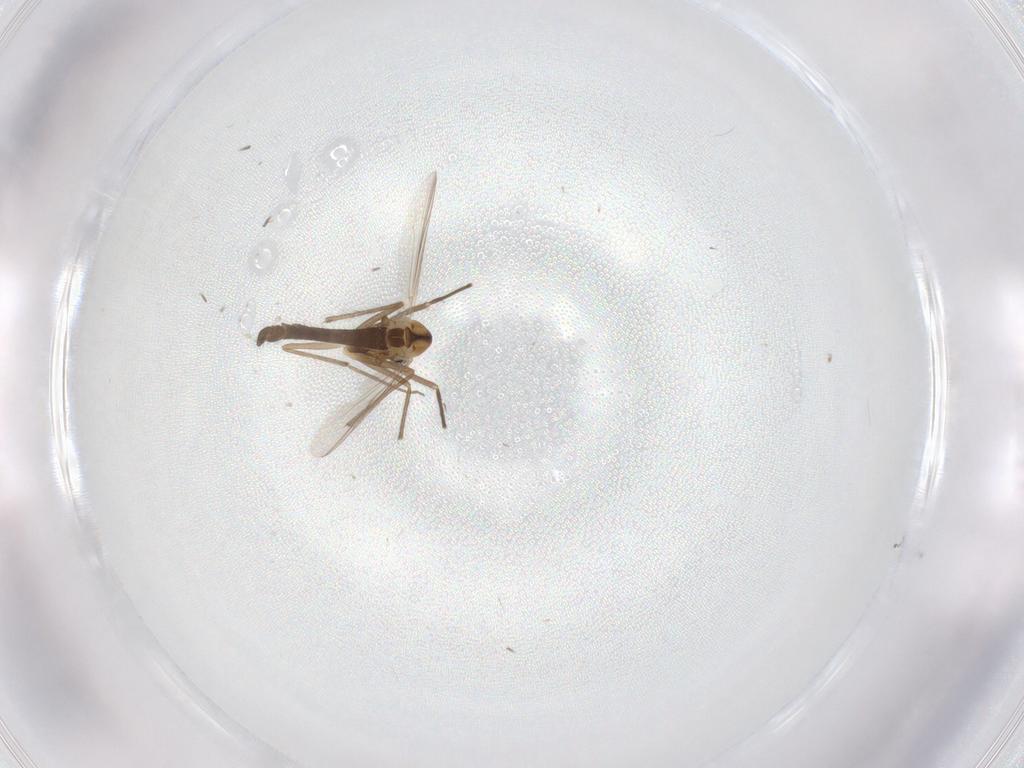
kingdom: Animalia
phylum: Arthropoda
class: Insecta
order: Diptera
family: Chironomidae
